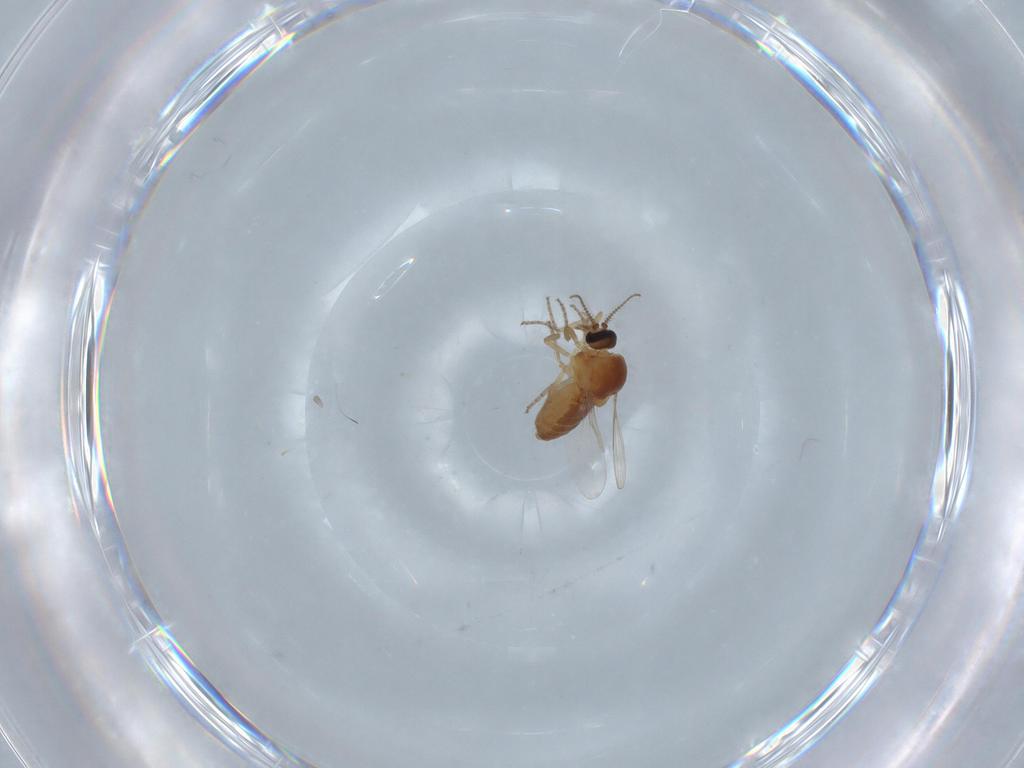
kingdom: Animalia
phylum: Arthropoda
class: Insecta
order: Diptera
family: Ceratopogonidae
